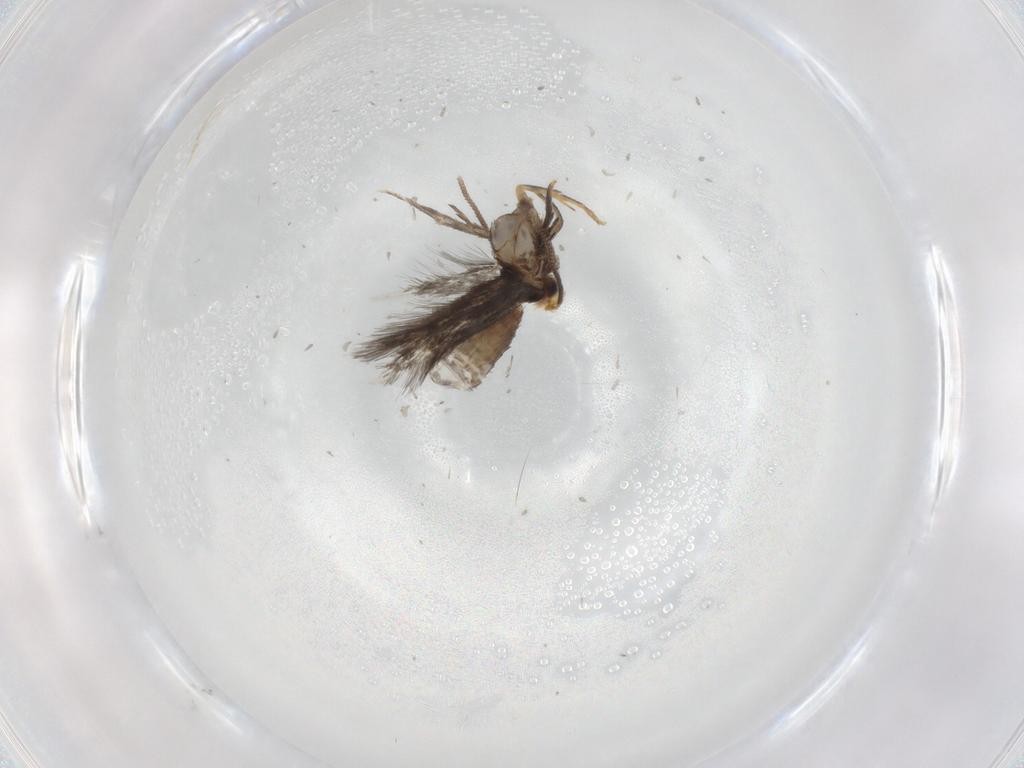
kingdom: Animalia
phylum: Arthropoda
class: Insecta
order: Lepidoptera
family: Nepticulidae
